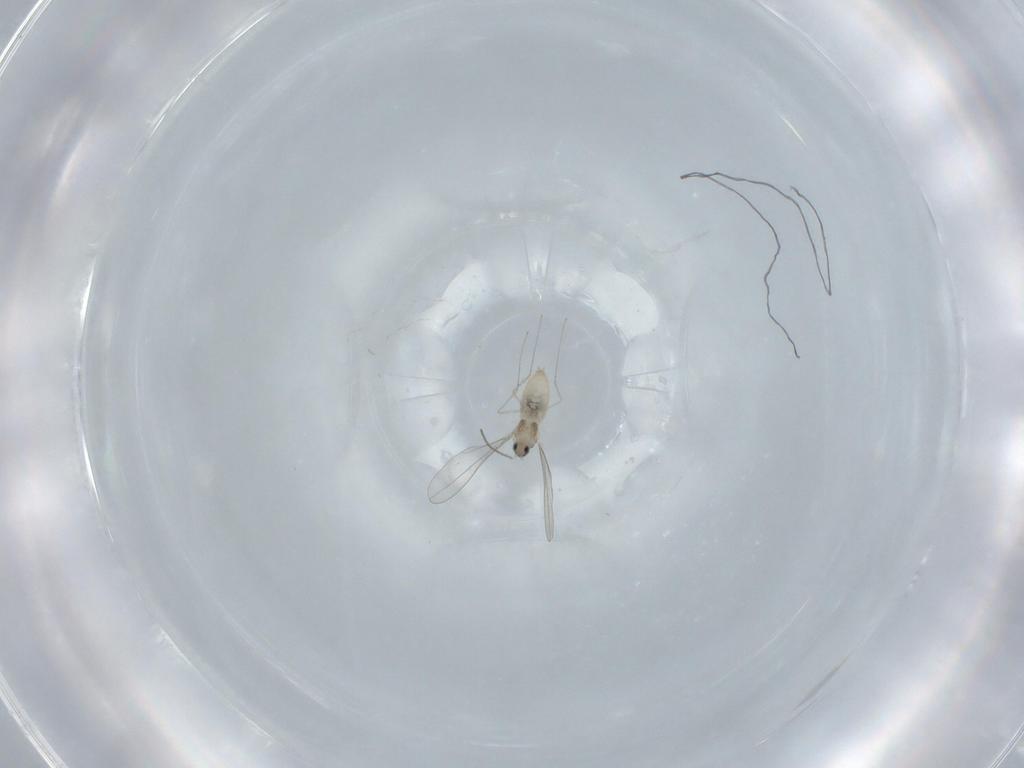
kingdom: Animalia
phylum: Arthropoda
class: Insecta
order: Diptera
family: Cecidomyiidae
